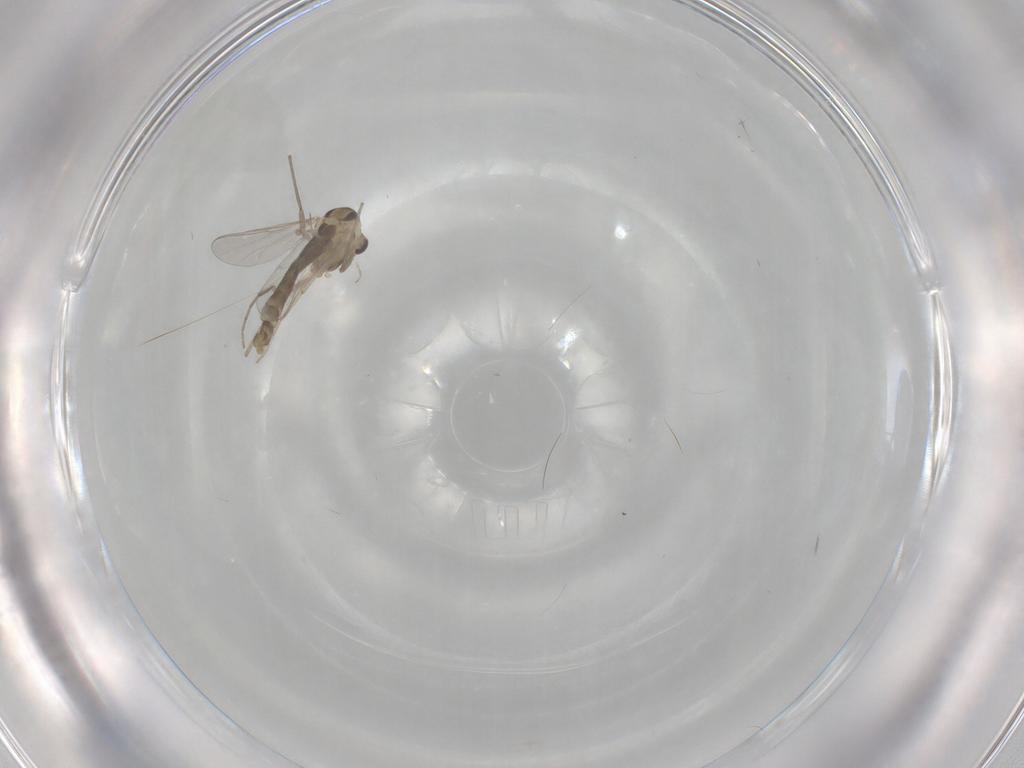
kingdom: Animalia
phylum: Arthropoda
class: Insecta
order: Diptera
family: Chironomidae
